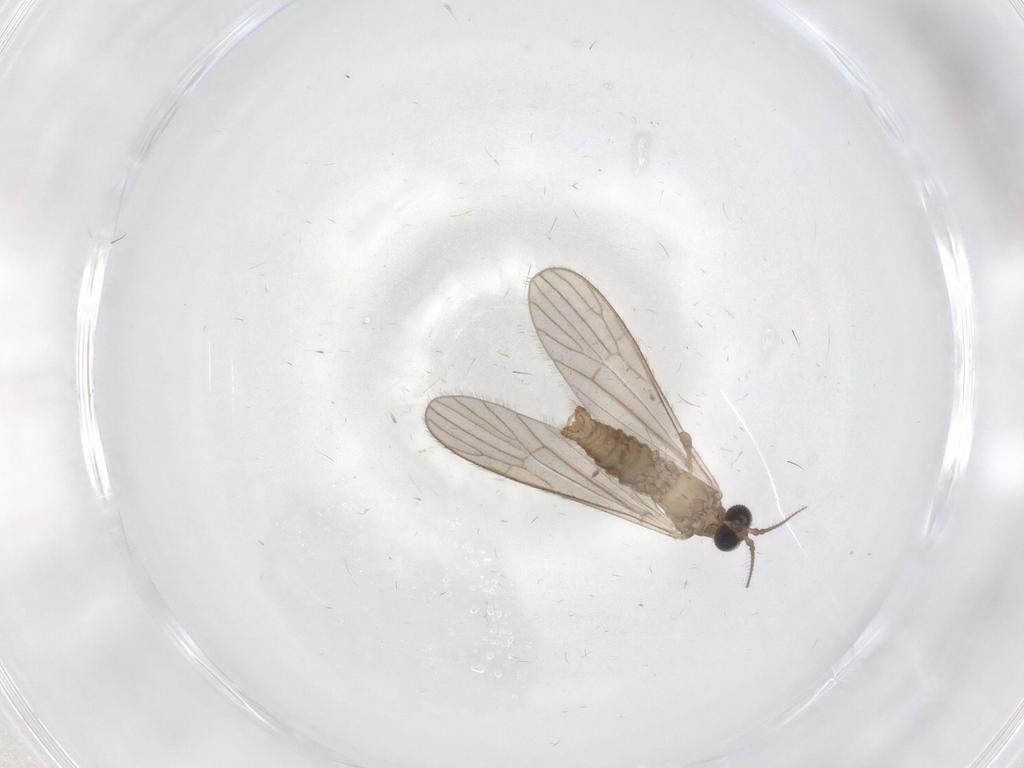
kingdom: Animalia
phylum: Arthropoda
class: Insecta
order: Diptera
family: Limoniidae
